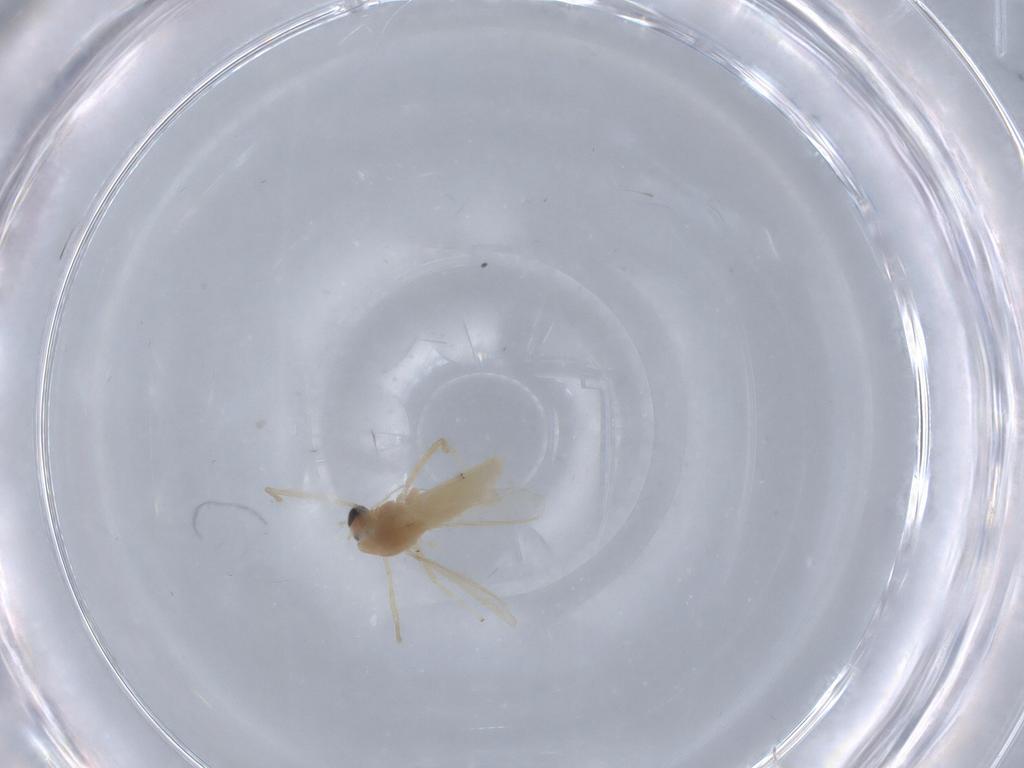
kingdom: Animalia
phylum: Arthropoda
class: Insecta
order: Diptera
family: Chironomidae
